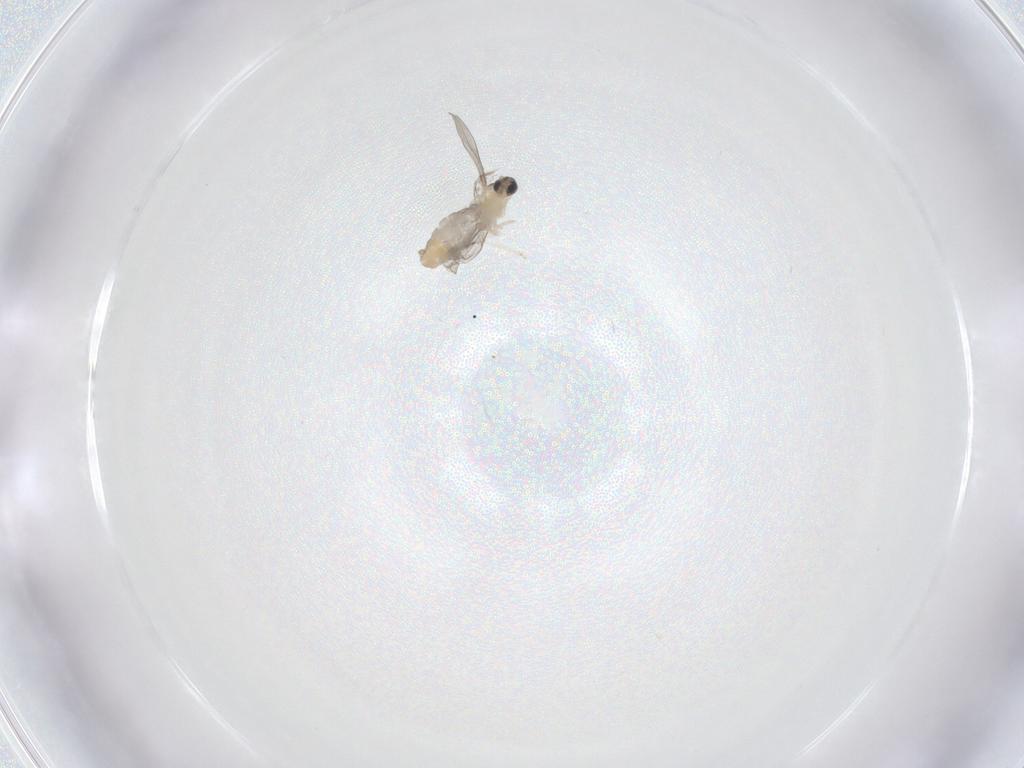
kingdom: Animalia
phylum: Arthropoda
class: Insecta
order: Diptera
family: Cecidomyiidae
